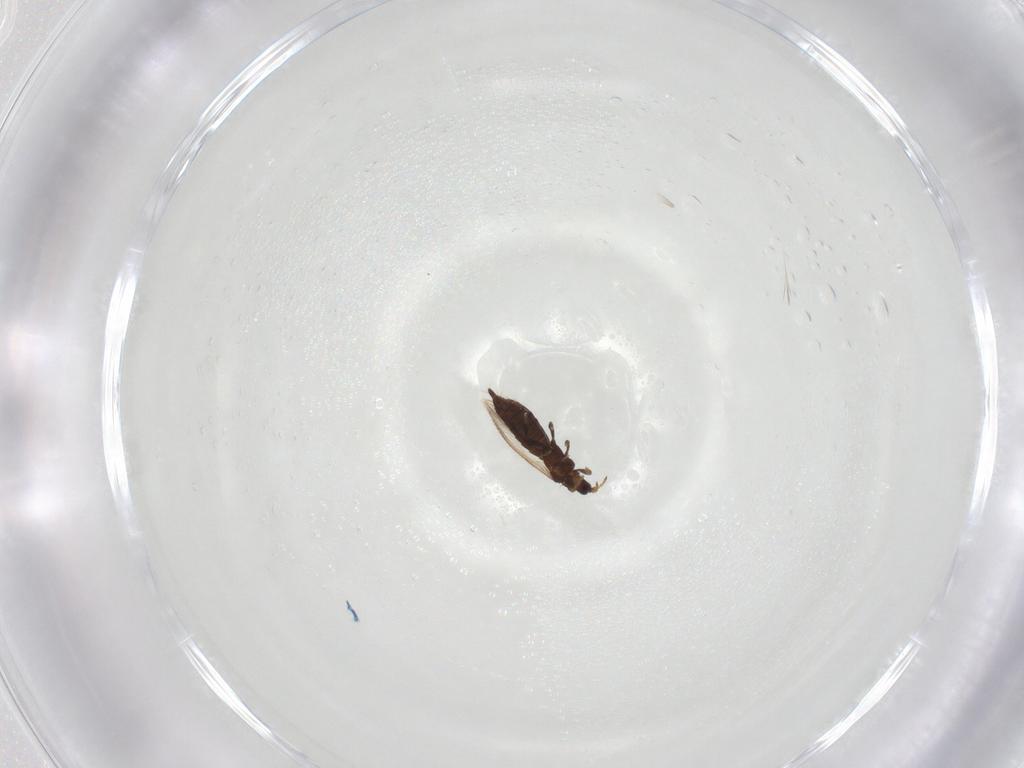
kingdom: Animalia
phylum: Arthropoda
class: Insecta
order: Thysanoptera
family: Thripidae
